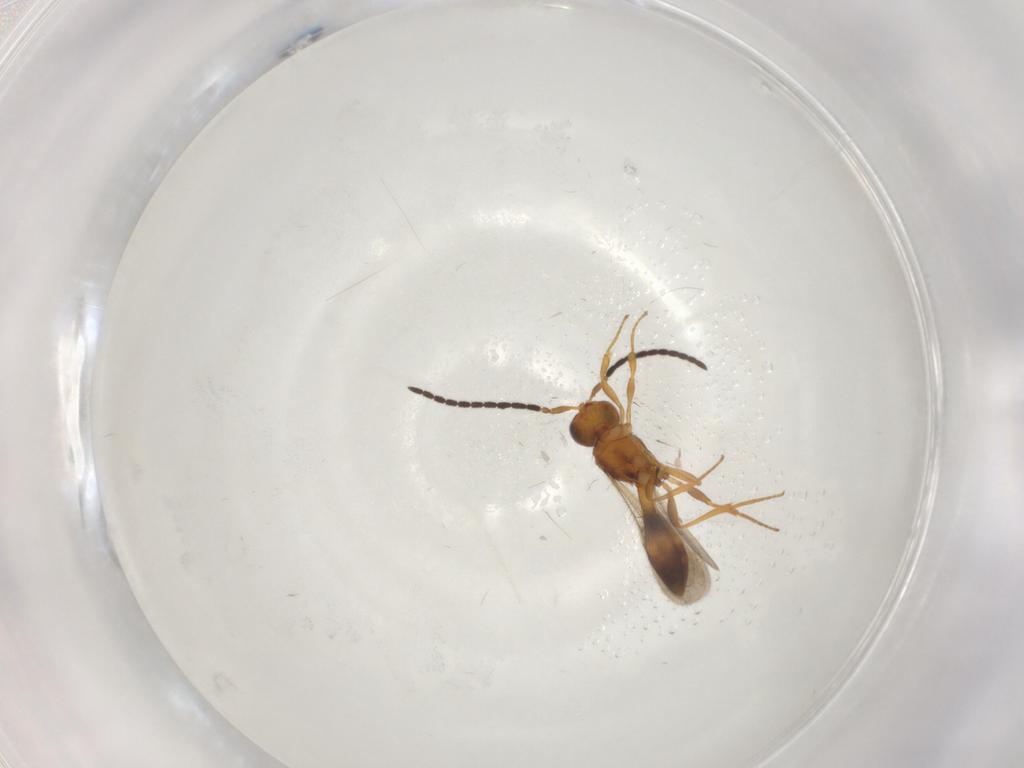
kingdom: Animalia
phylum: Arthropoda
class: Insecta
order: Hymenoptera
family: Scelionidae
